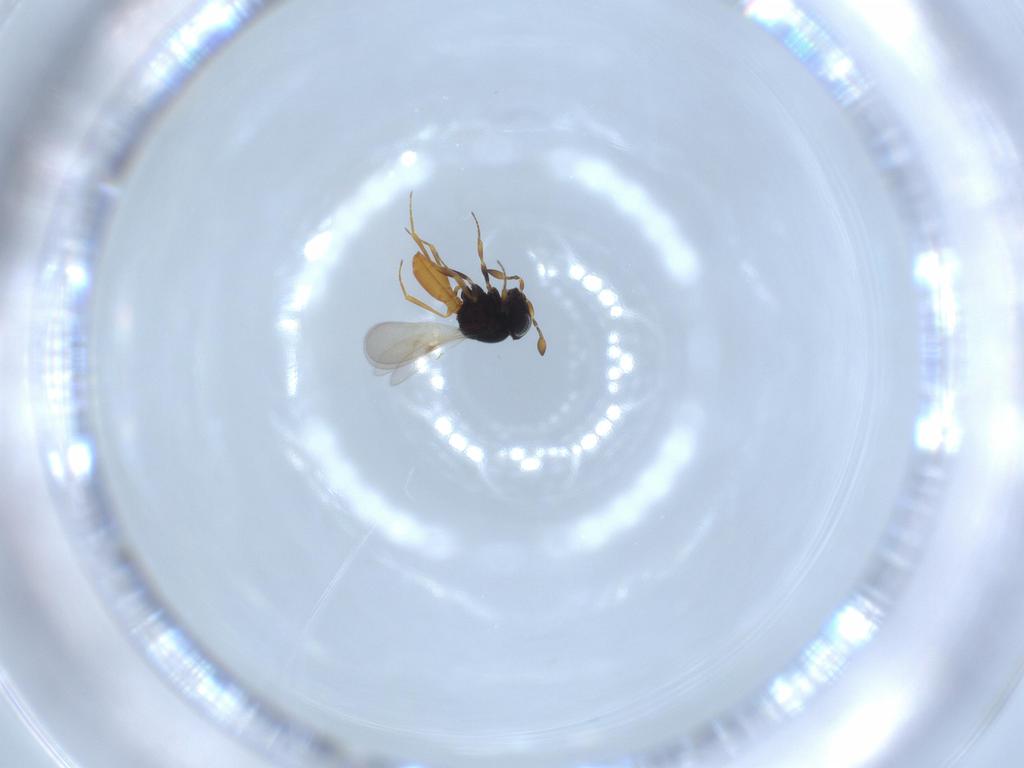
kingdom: Animalia
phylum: Arthropoda
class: Insecta
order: Hymenoptera
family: Scelionidae
